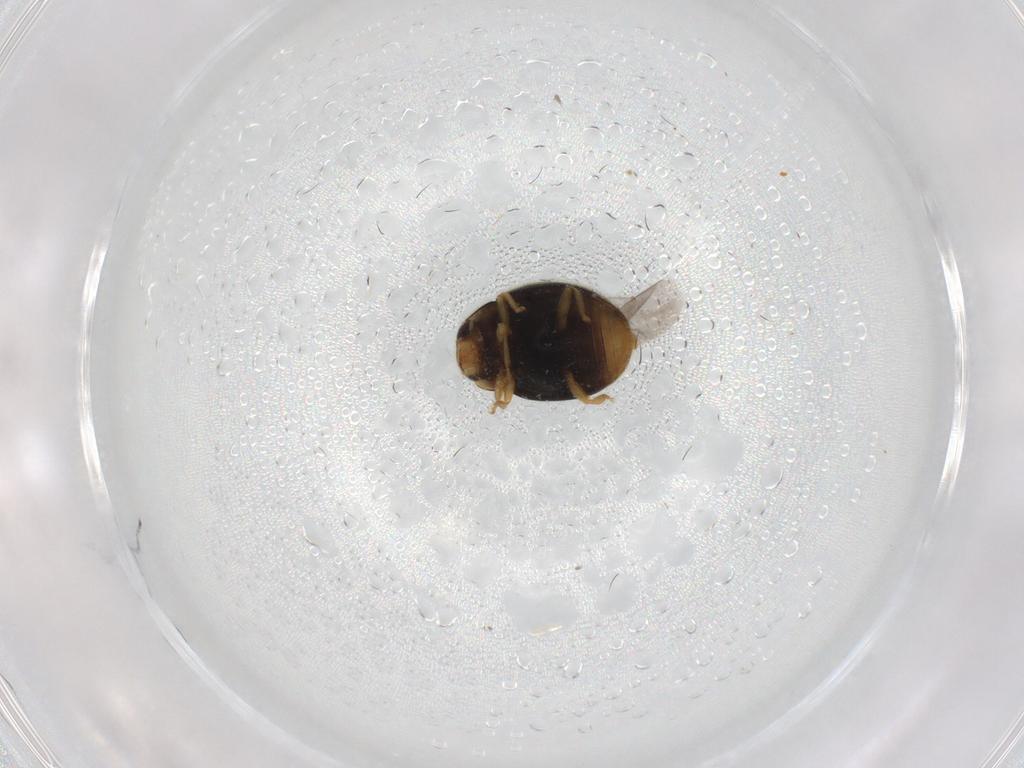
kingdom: Animalia
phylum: Arthropoda
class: Insecta
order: Coleoptera
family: Coccinellidae
